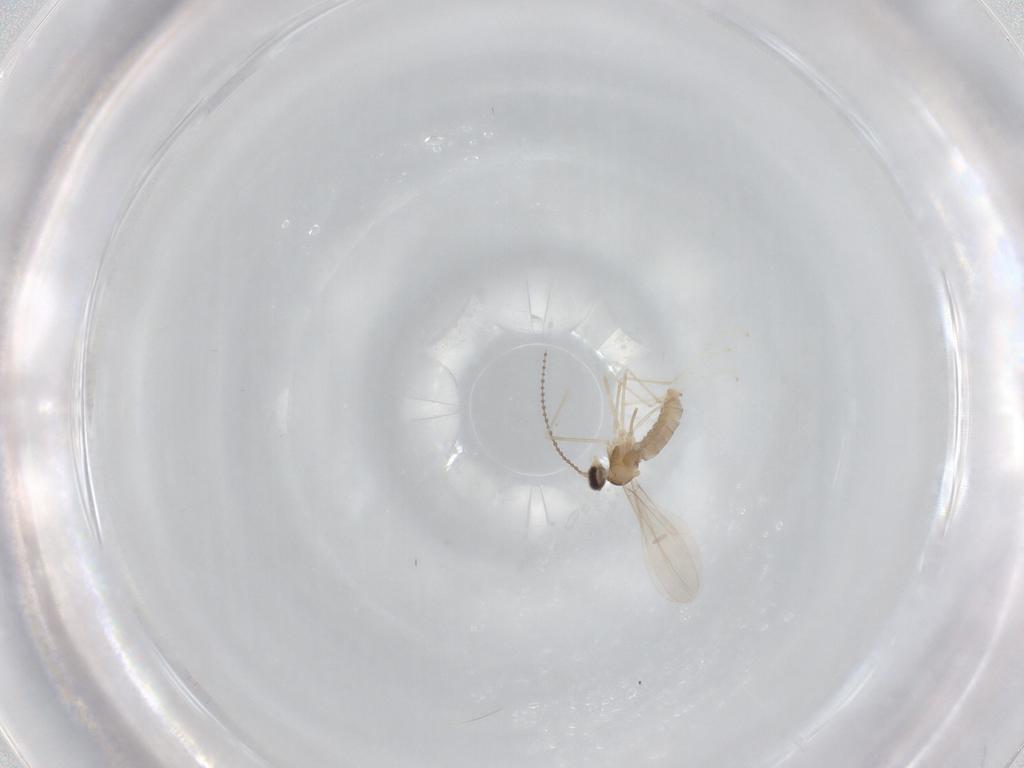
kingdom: Animalia
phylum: Arthropoda
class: Insecta
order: Diptera
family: Cecidomyiidae
